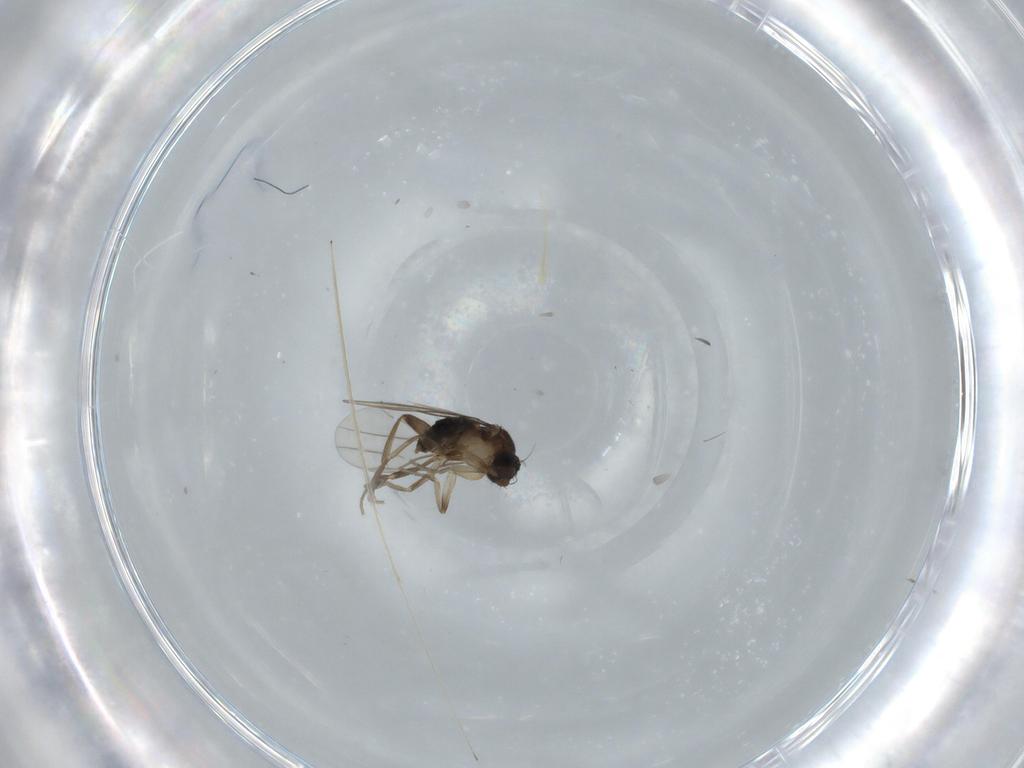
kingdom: Animalia
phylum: Arthropoda
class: Insecta
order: Diptera
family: Phoridae
